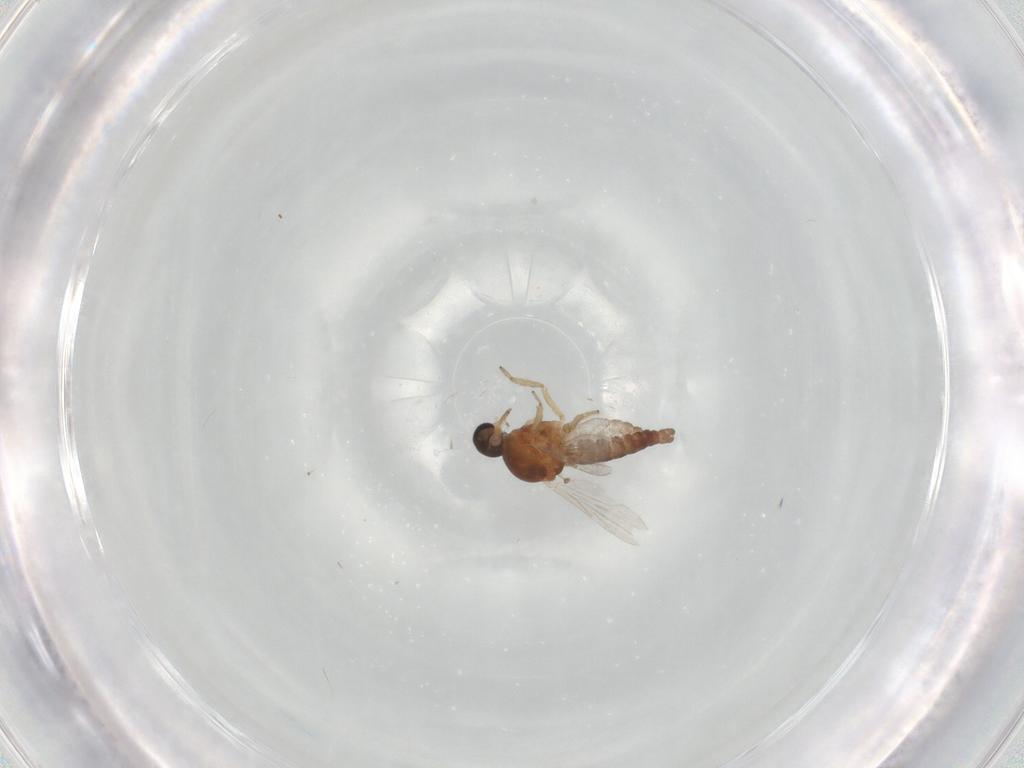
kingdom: Animalia
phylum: Arthropoda
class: Insecta
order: Diptera
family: Ceratopogonidae
